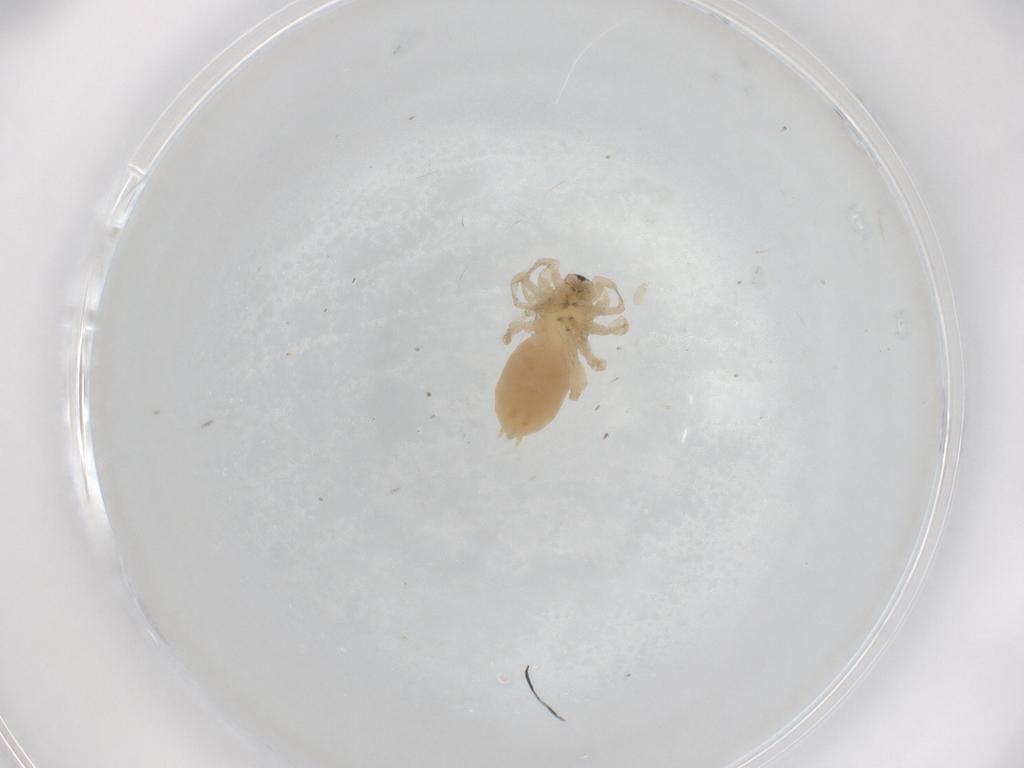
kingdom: Animalia
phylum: Arthropoda
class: Arachnida
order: Araneae
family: Anyphaenidae
